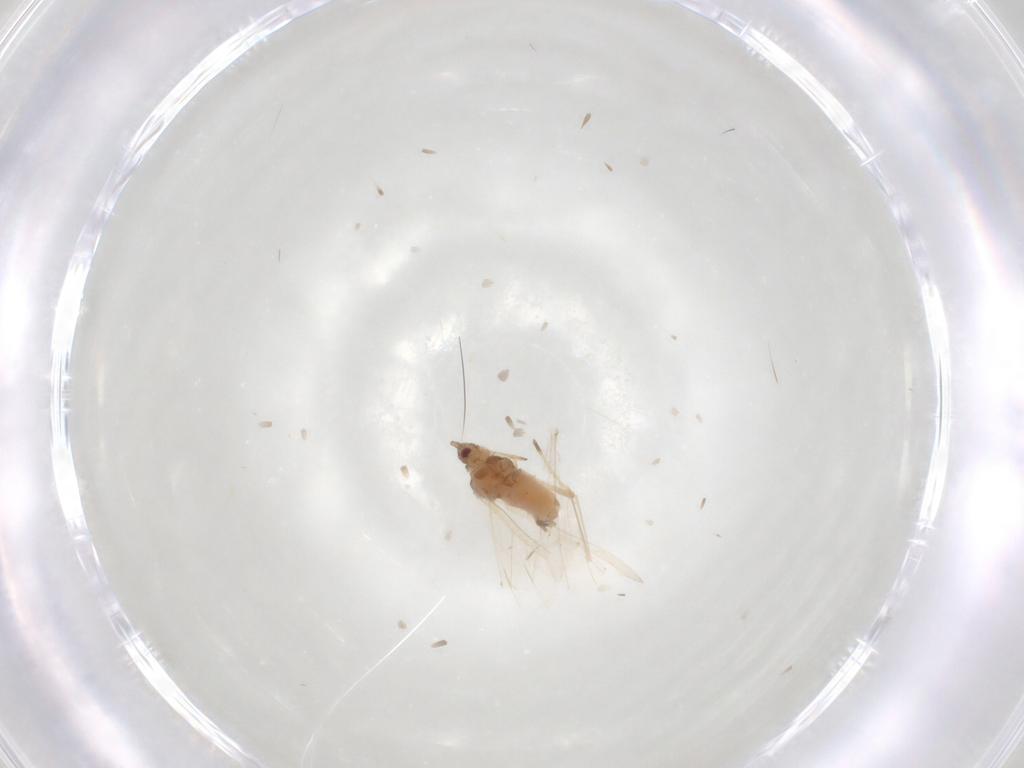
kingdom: Animalia
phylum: Arthropoda
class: Insecta
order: Hemiptera
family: Aphididae
